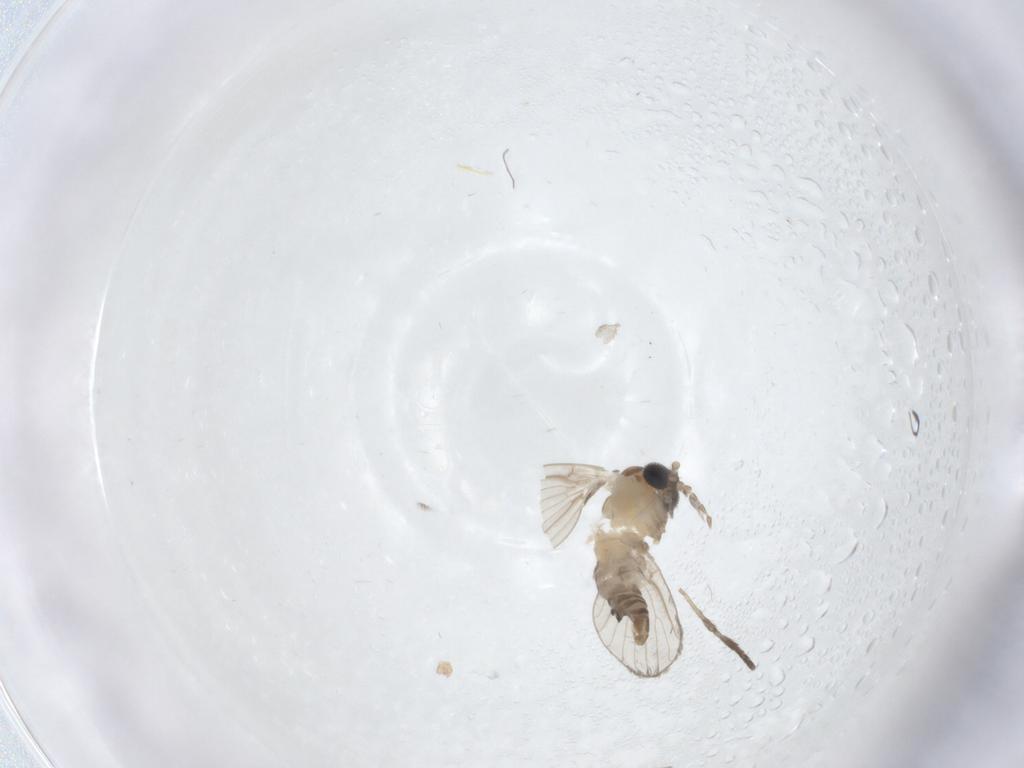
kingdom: Animalia
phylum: Arthropoda
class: Insecta
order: Diptera
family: Psychodidae
